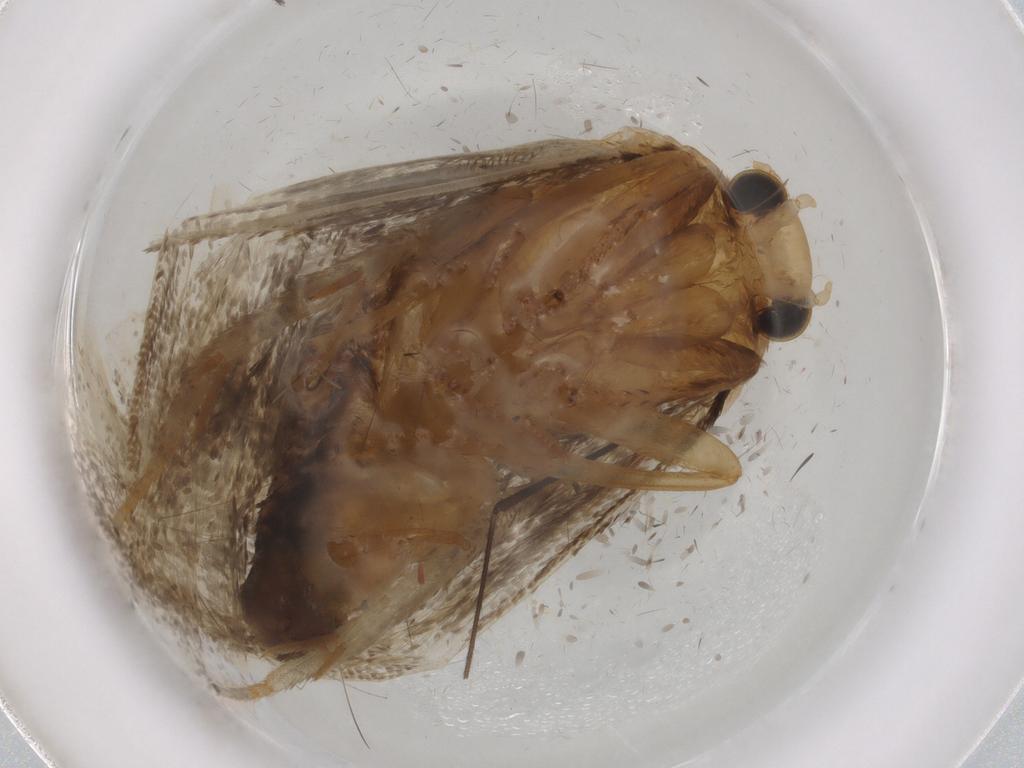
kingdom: Animalia
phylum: Arthropoda
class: Insecta
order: Lepidoptera
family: Tineidae
